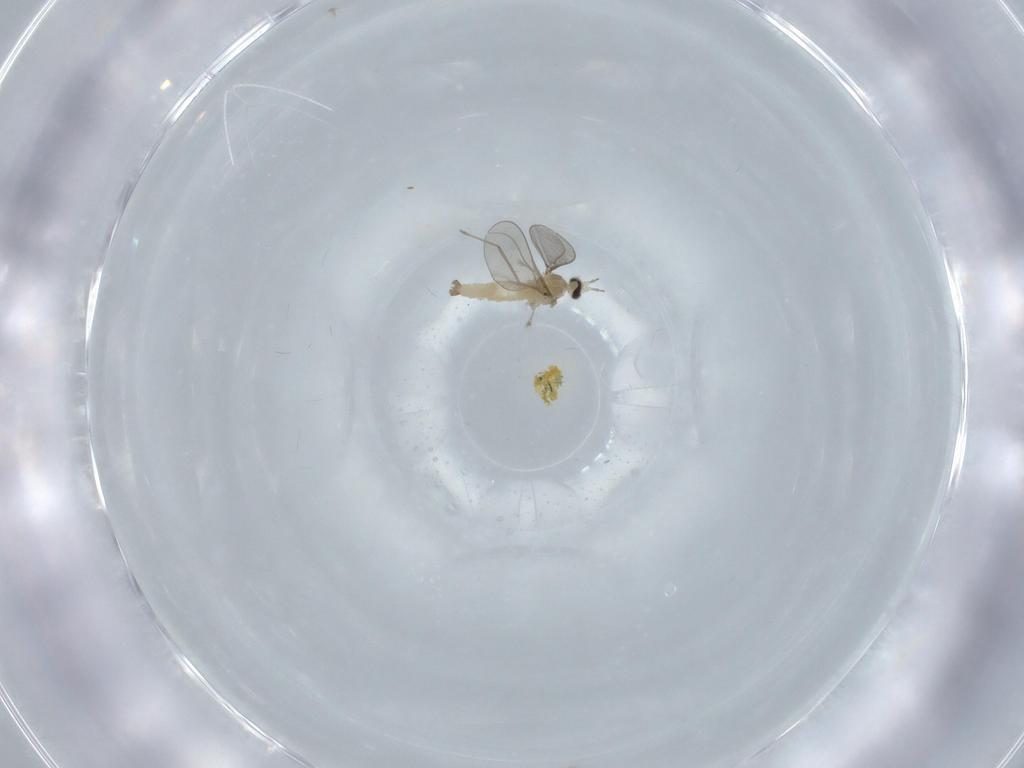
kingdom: Animalia
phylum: Arthropoda
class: Insecta
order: Diptera
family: Cecidomyiidae
